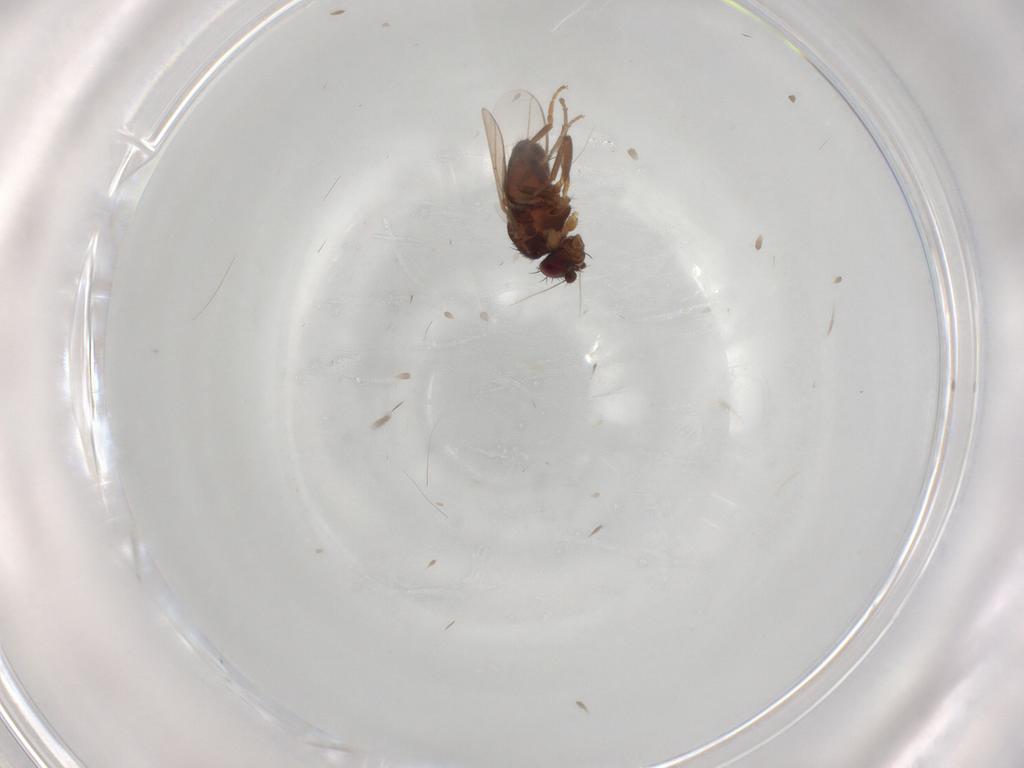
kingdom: Animalia
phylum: Arthropoda
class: Insecta
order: Diptera
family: Sphaeroceridae
